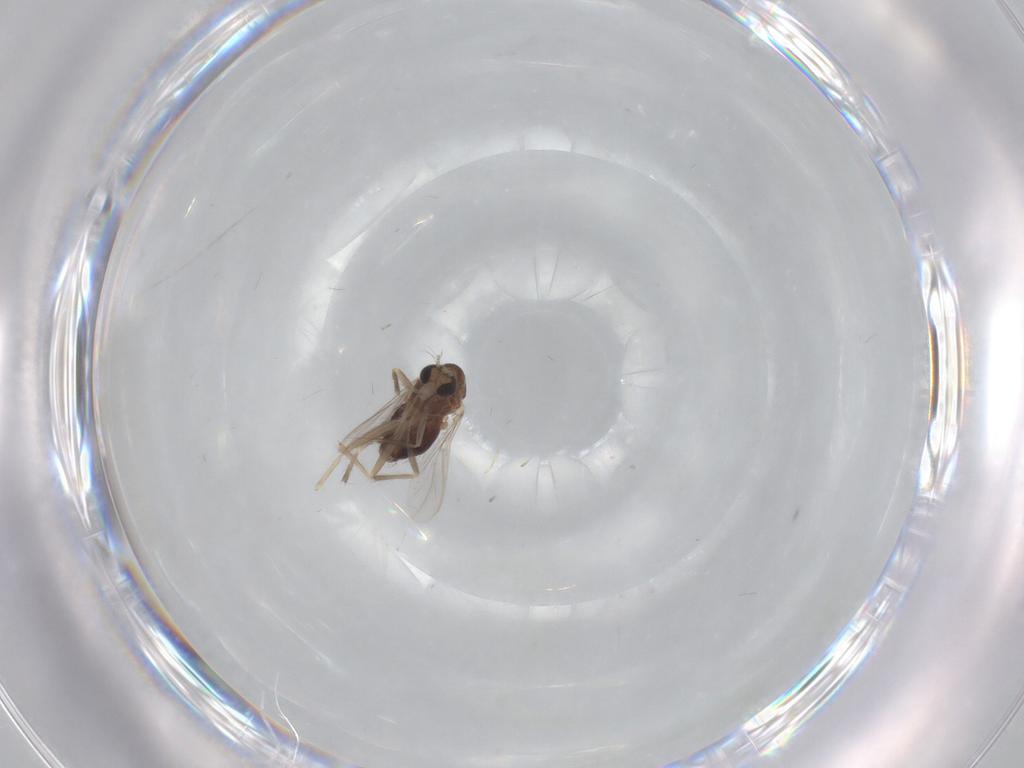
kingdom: Animalia
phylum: Arthropoda
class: Insecta
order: Diptera
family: Chironomidae
